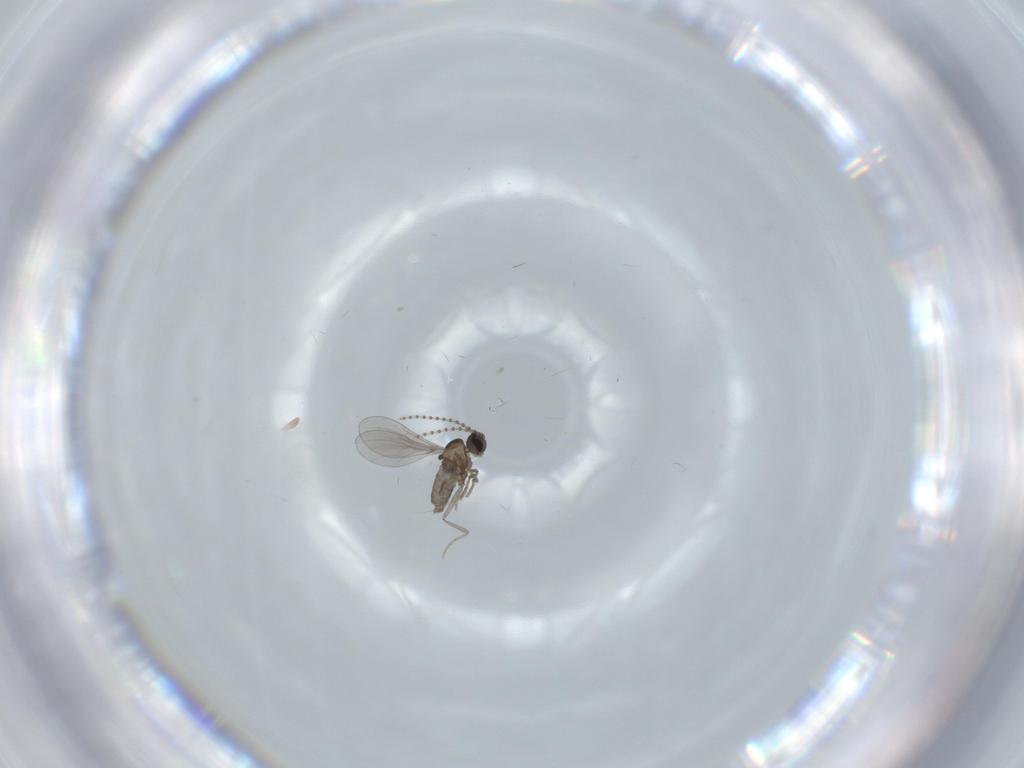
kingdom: Animalia
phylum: Arthropoda
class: Insecta
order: Diptera
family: Cecidomyiidae
